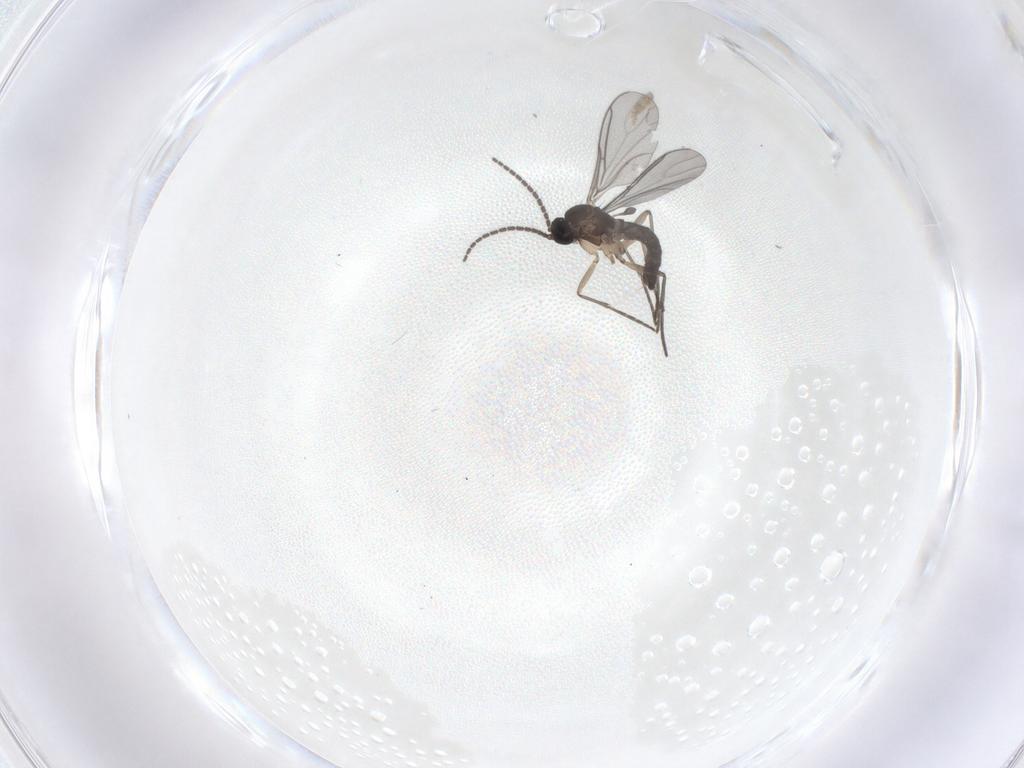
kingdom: Animalia
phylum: Arthropoda
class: Insecta
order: Diptera
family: Sciaridae
